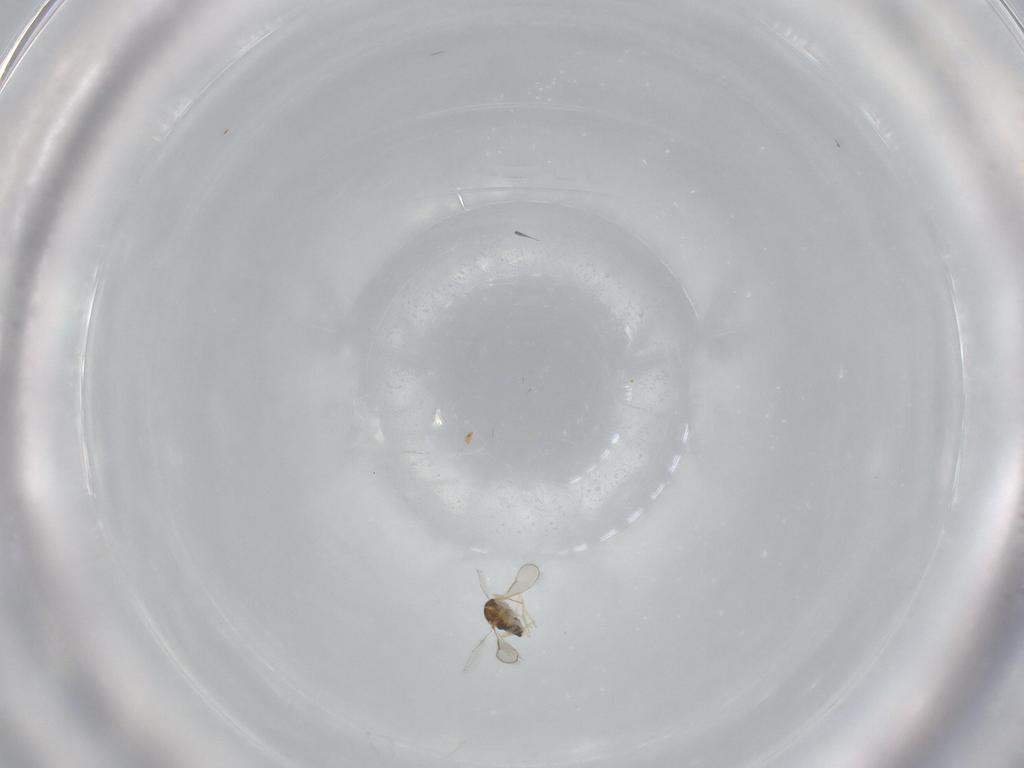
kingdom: Animalia
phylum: Arthropoda
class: Insecta
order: Hymenoptera
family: Aphelinidae
